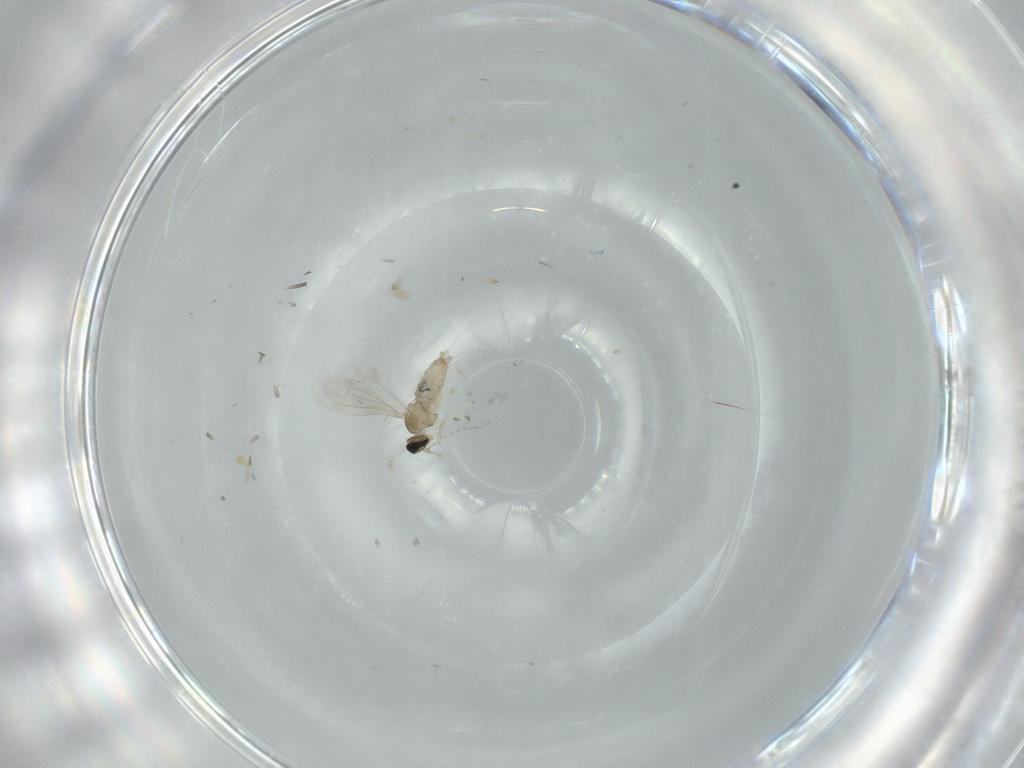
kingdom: Animalia
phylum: Arthropoda
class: Insecta
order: Diptera
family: Cecidomyiidae
